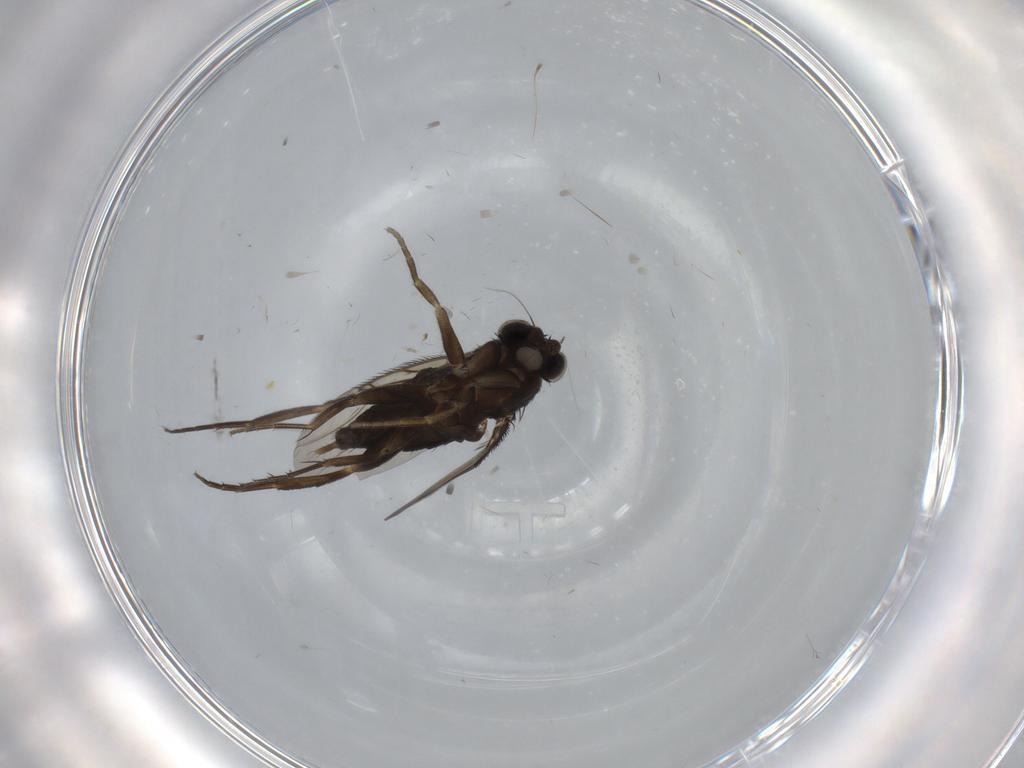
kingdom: Animalia
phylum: Arthropoda
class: Insecta
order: Diptera
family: Phoridae
